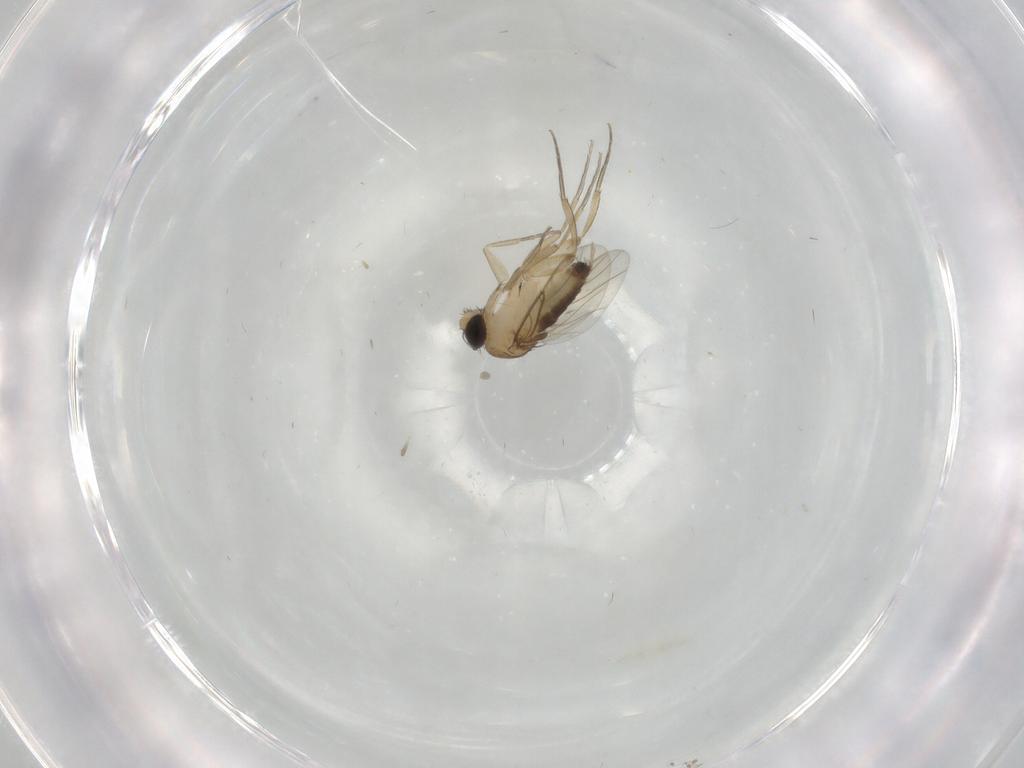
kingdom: Animalia
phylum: Arthropoda
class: Insecta
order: Diptera
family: Phoridae
